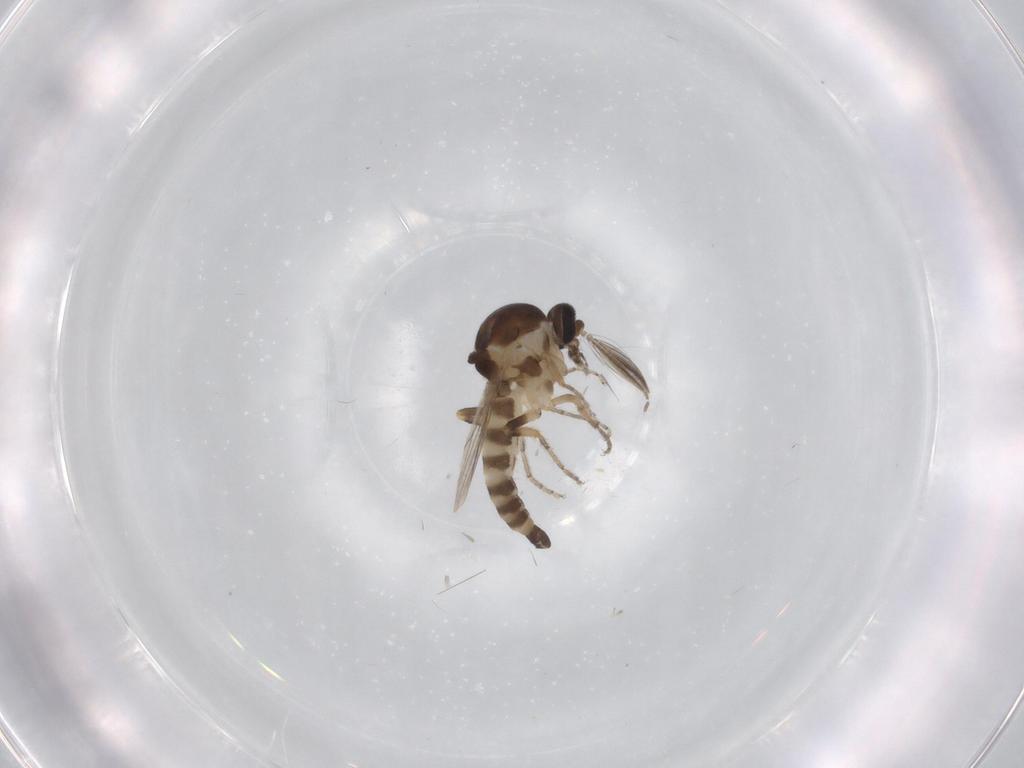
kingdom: Animalia
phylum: Arthropoda
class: Insecta
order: Diptera
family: Ceratopogonidae
